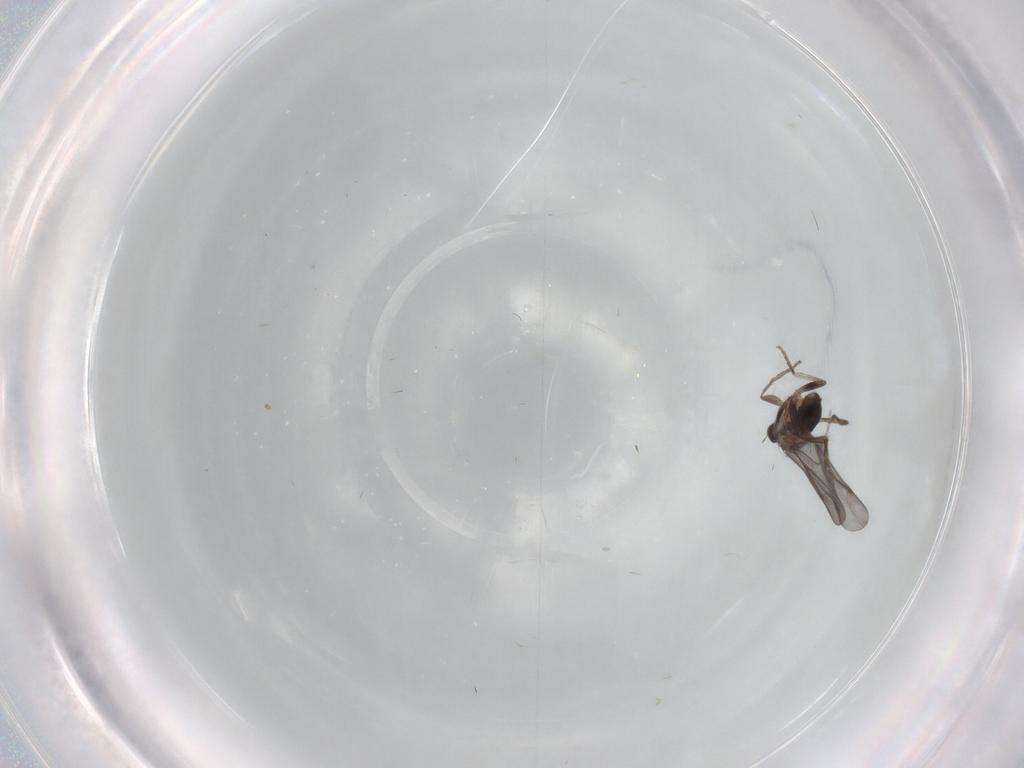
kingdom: Animalia
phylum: Arthropoda
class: Insecta
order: Diptera
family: Phoridae
